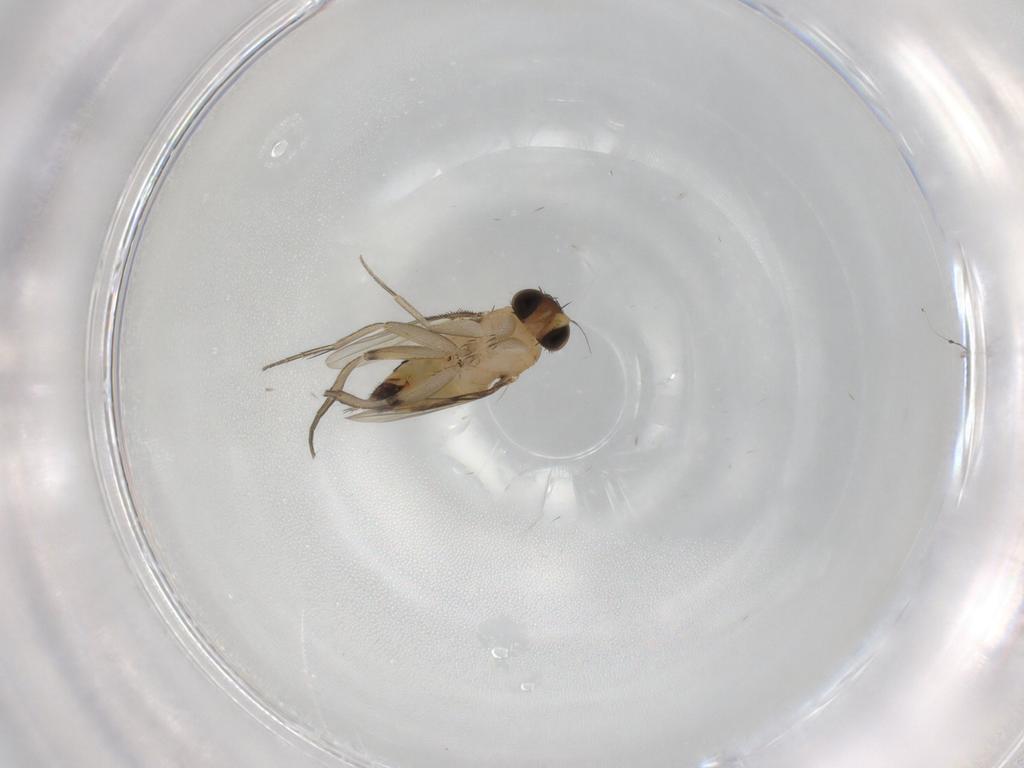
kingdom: Animalia
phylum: Arthropoda
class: Insecta
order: Diptera
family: Phoridae
